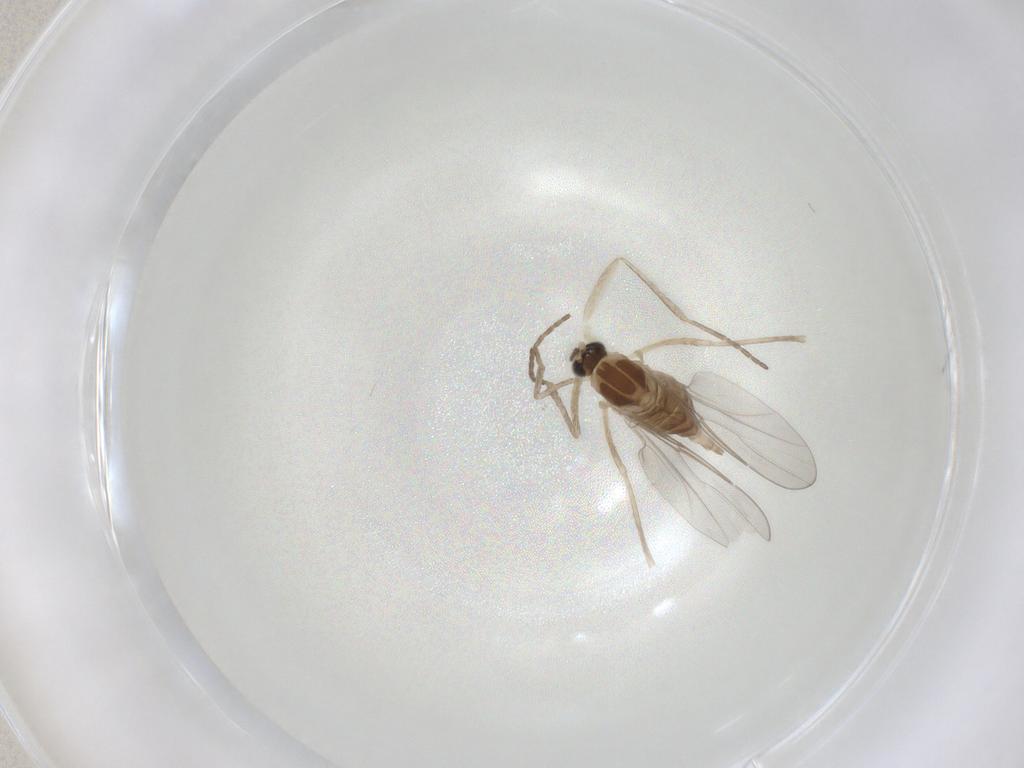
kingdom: Animalia
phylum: Arthropoda
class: Insecta
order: Diptera
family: Cecidomyiidae
